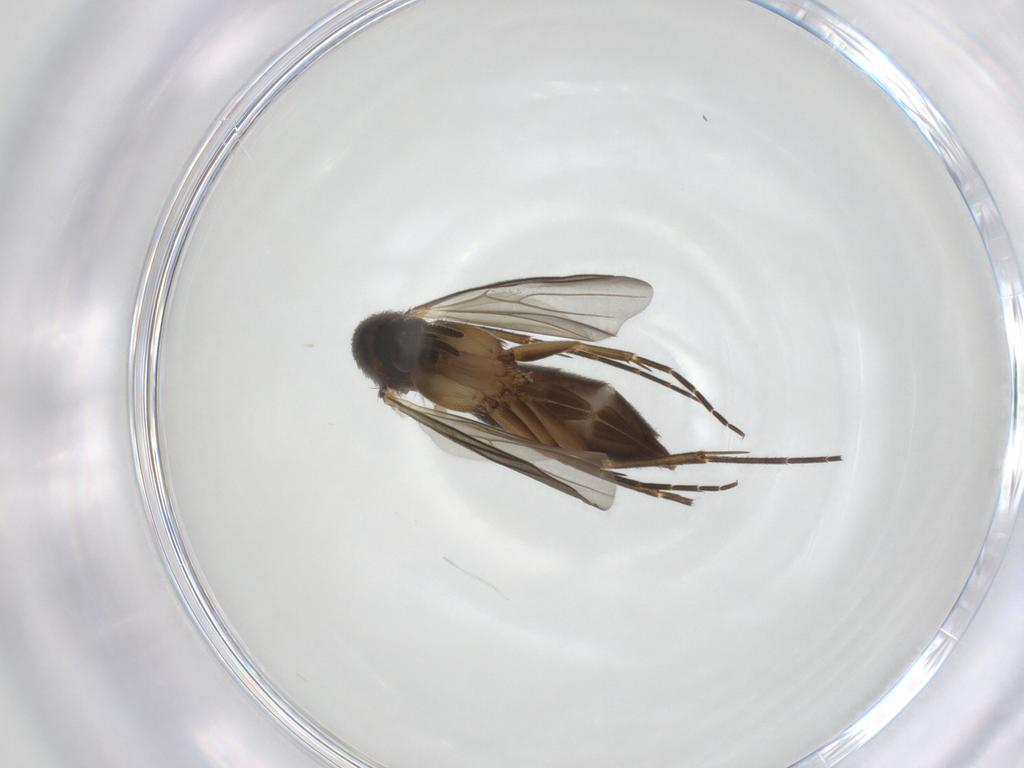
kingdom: Animalia
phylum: Arthropoda
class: Insecta
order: Diptera
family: Mycetophilidae
